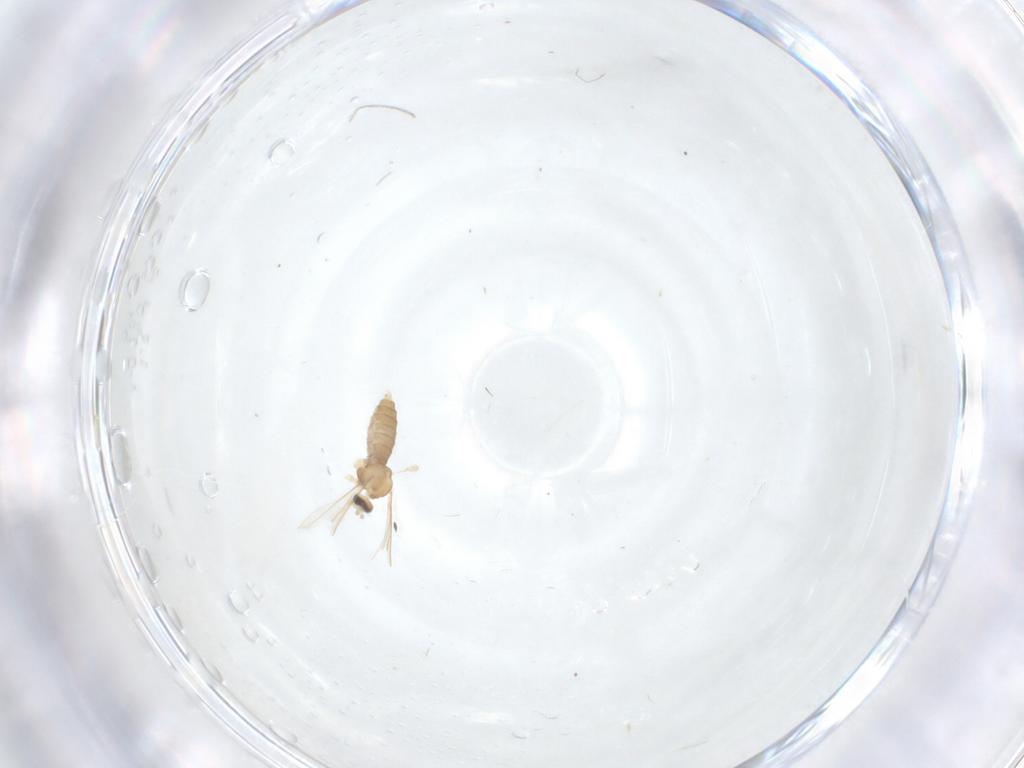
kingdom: Animalia
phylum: Arthropoda
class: Insecta
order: Diptera
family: Cecidomyiidae
